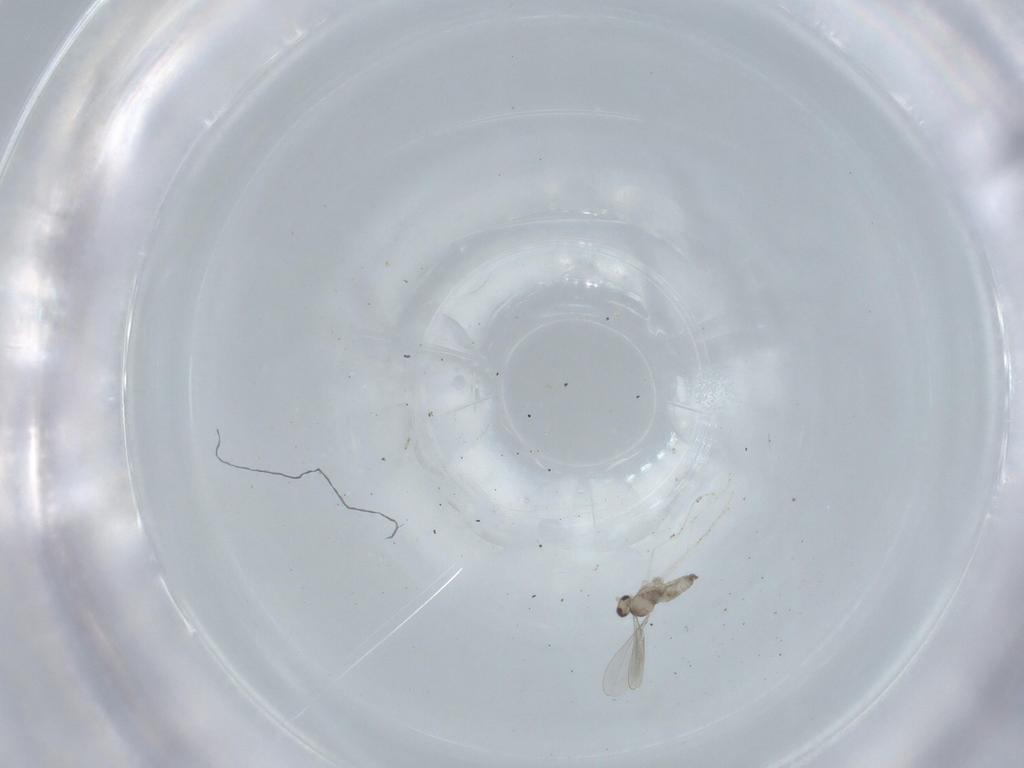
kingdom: Animalia
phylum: Arthropoda
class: Insecta
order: Diptera
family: Cecidomyiidae
